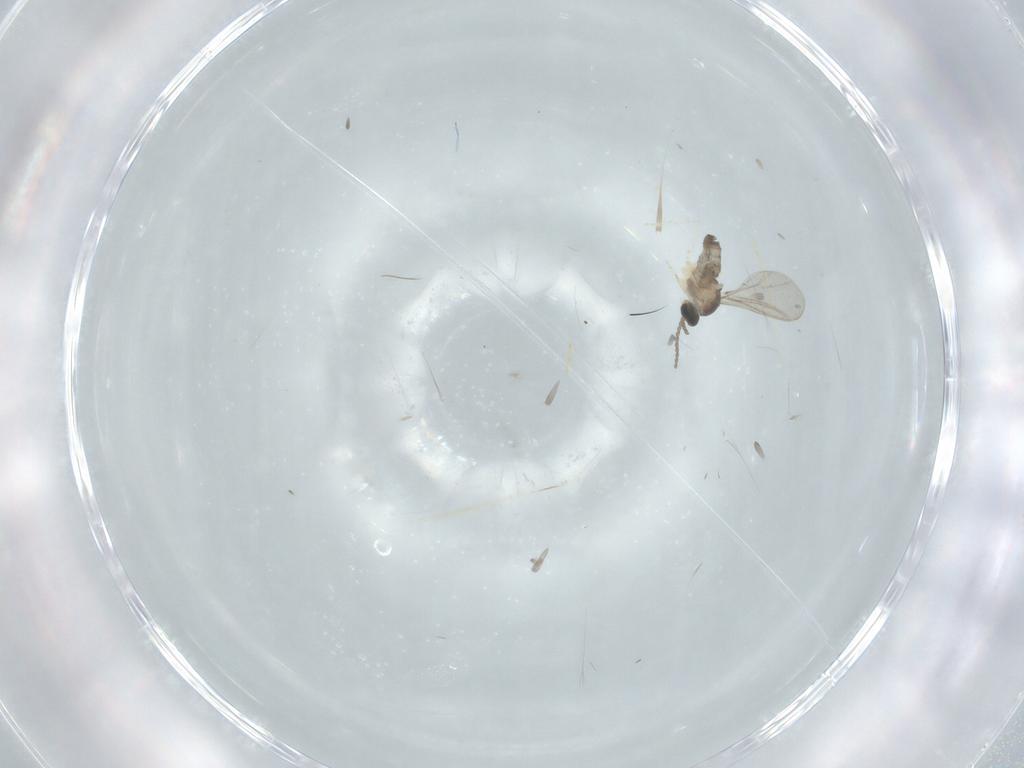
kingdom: Animalia
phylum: Arthropoda
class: Insecta
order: Diptera
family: Cecidomyiidae
